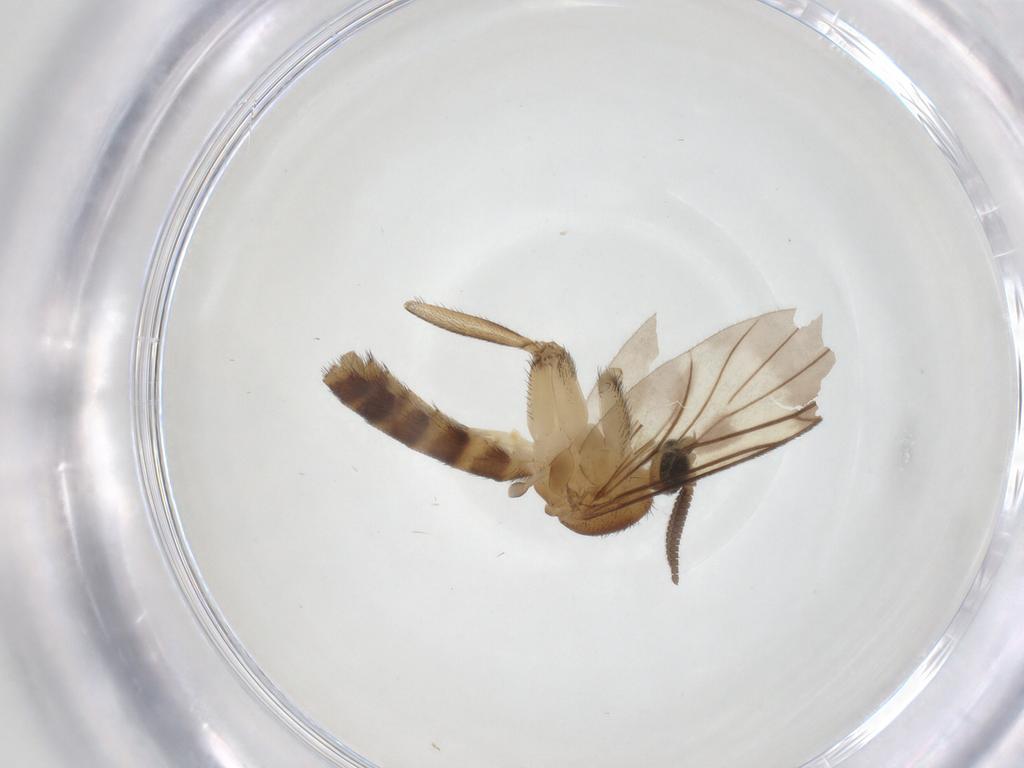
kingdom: Animalia
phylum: Arthropoda
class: Insecta
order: Diptera
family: Keroplatidae
